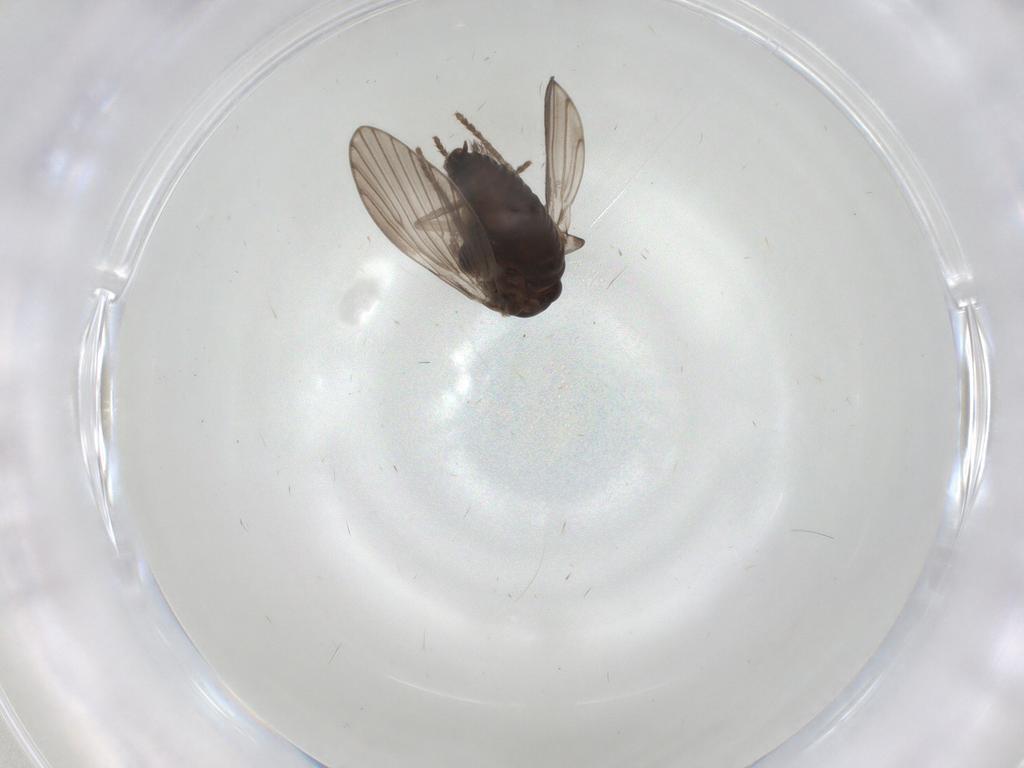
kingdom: Animalia
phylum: Arthropoda
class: Insecta
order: Diptera
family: Psychodidae
